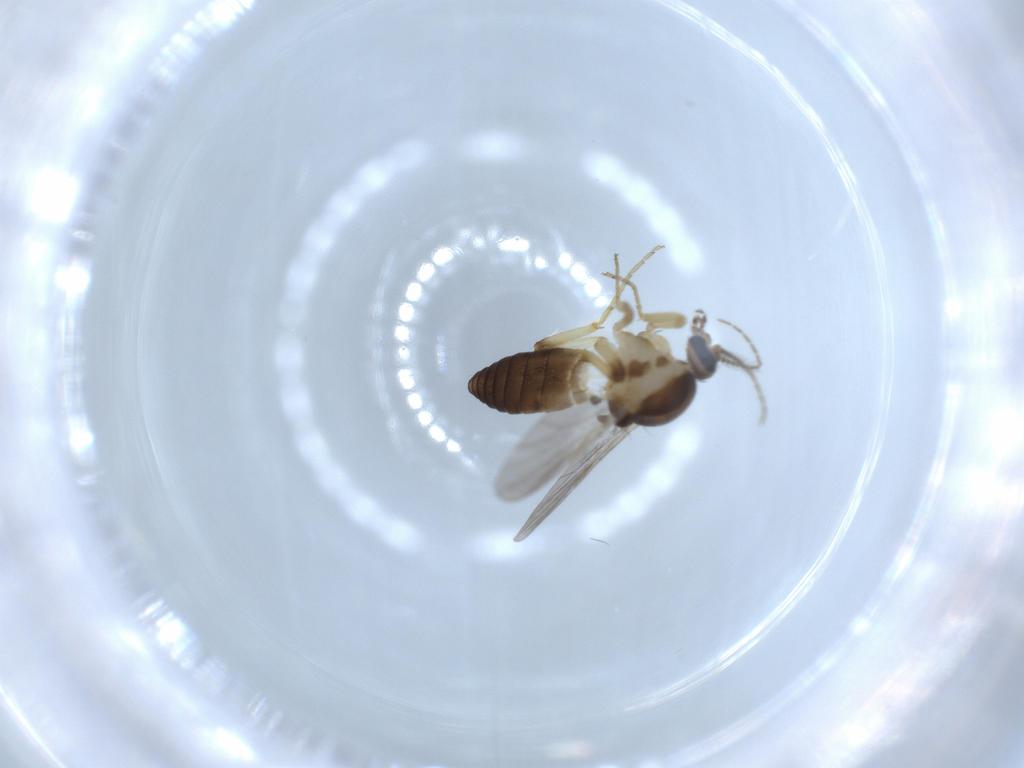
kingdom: Animalia
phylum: Arthropoda
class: Insecta
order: Diptera
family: Ceratopogonidae
